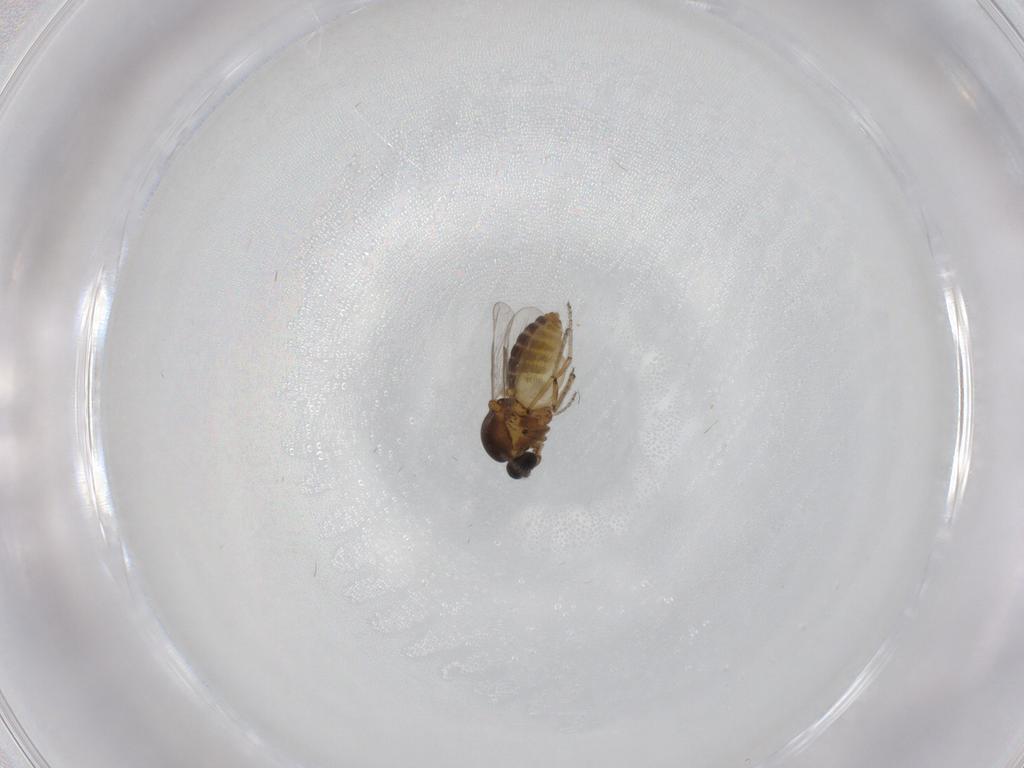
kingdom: Animalia
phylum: Arthropoda
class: Insecta
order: Diptera
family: Ceratopogonidae
